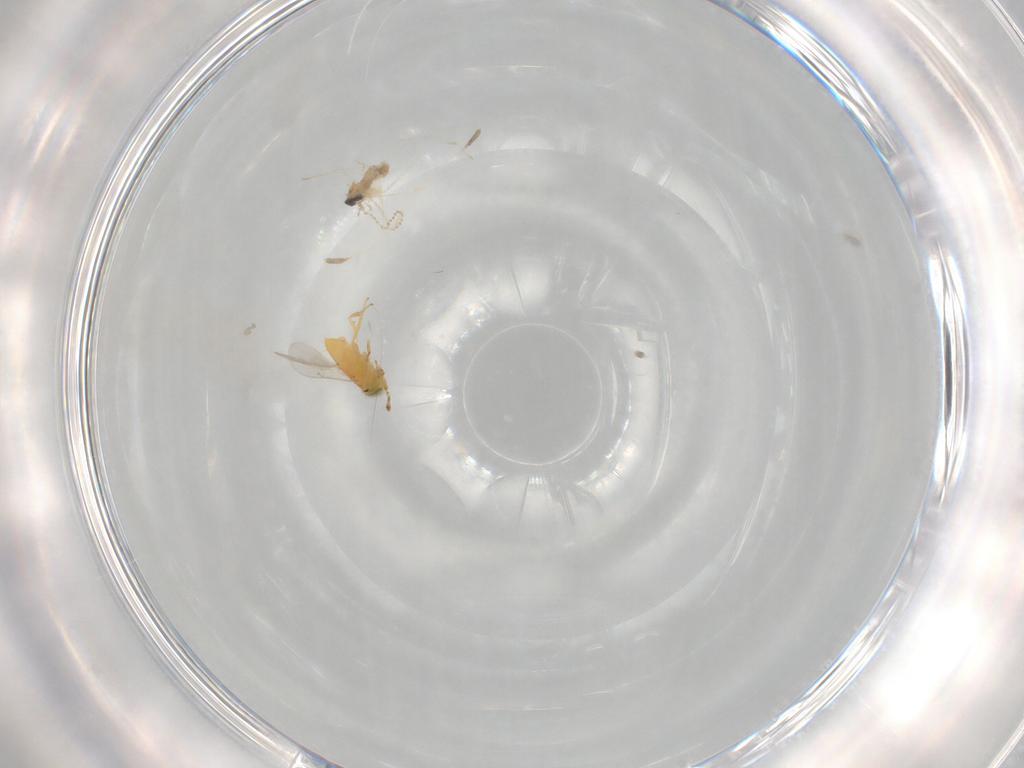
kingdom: Animalia
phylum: Arthropoda
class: Insecta
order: Diptera
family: Cecidomyiidae
